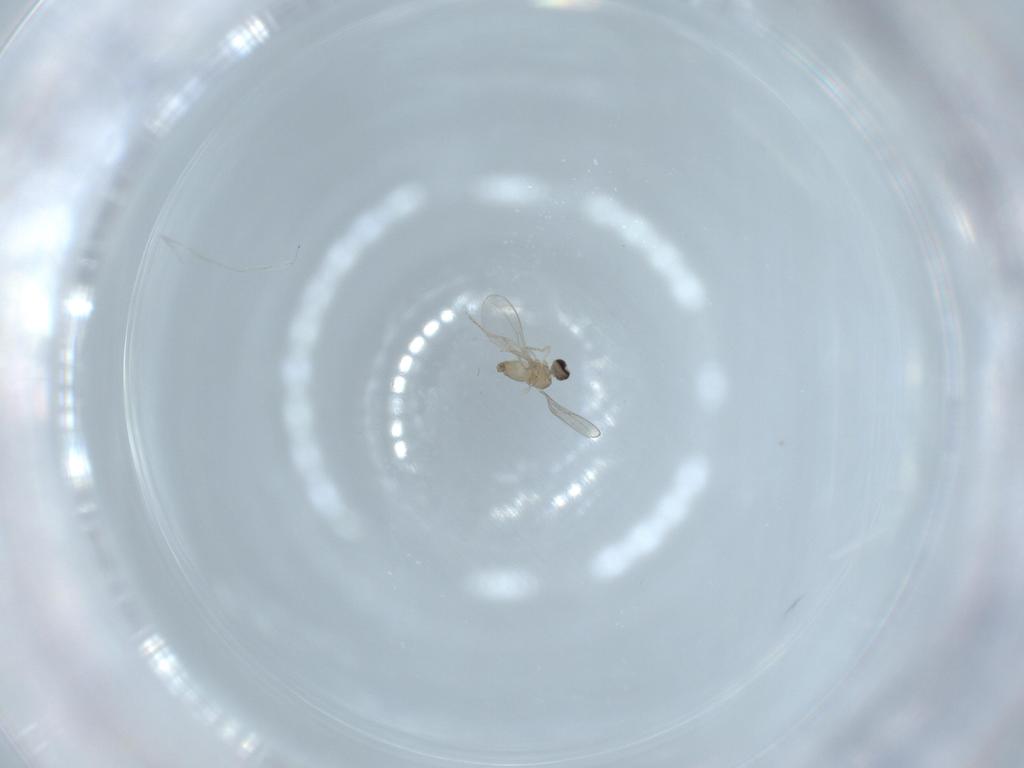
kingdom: Animalia
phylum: Arthropoda
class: Insecta
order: Diptera
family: Cecidomyiidae
